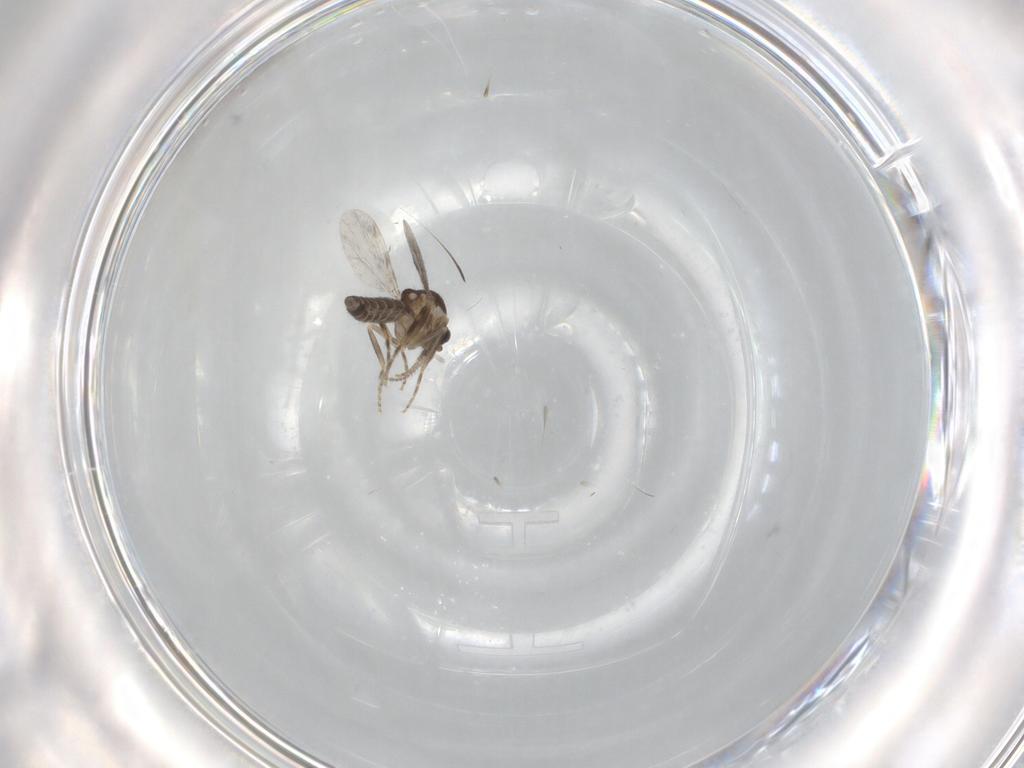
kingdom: Animalia
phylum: Arthropoda
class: Insecta
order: Diptera
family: Ceratopogonidae
